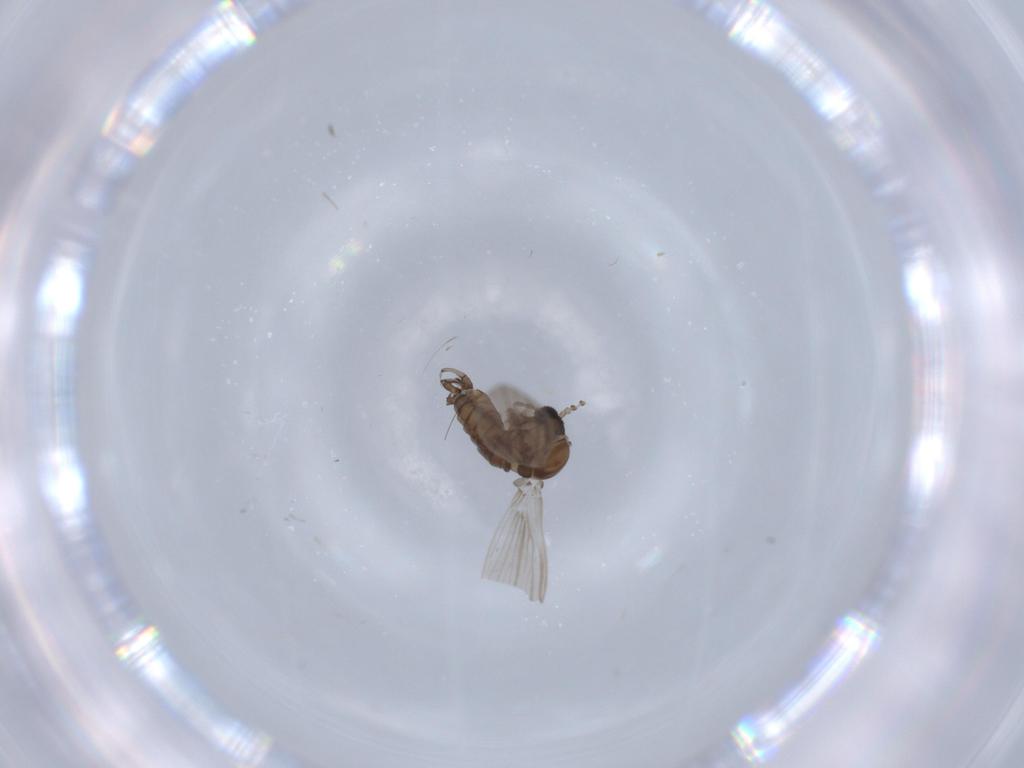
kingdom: Animalia
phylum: Arthropoda
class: Insecta
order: Diptera
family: Psychodidae
